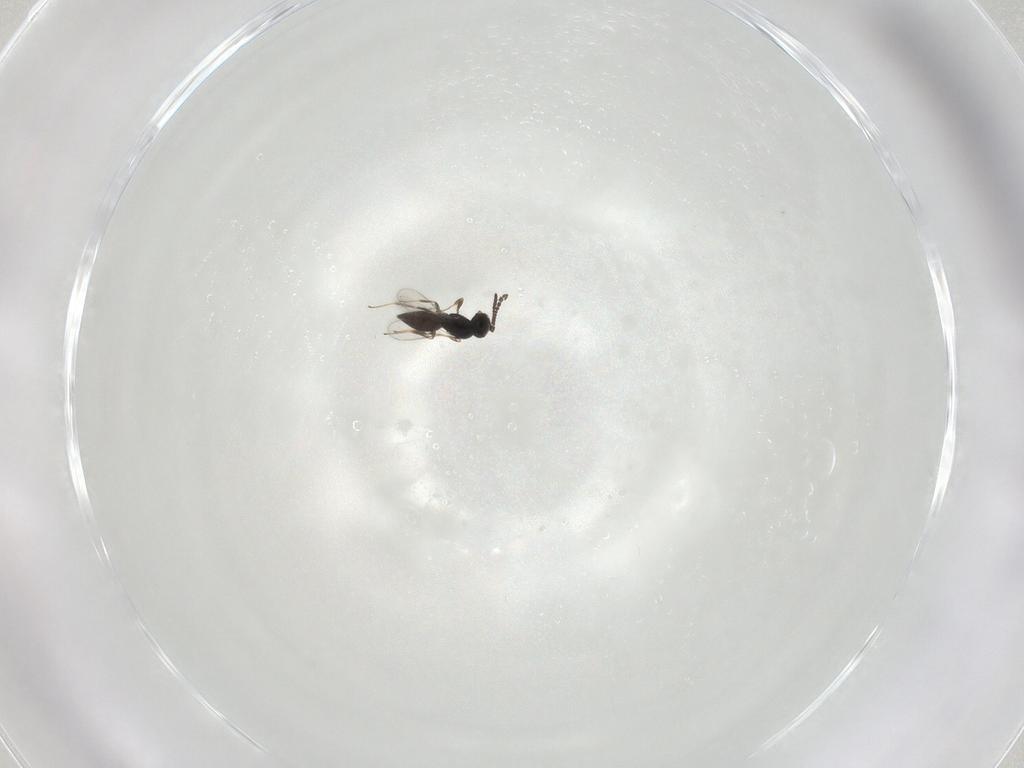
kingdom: Animalia
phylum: Arthropoda
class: Insecta
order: Hymenoptera
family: Scelionidae
